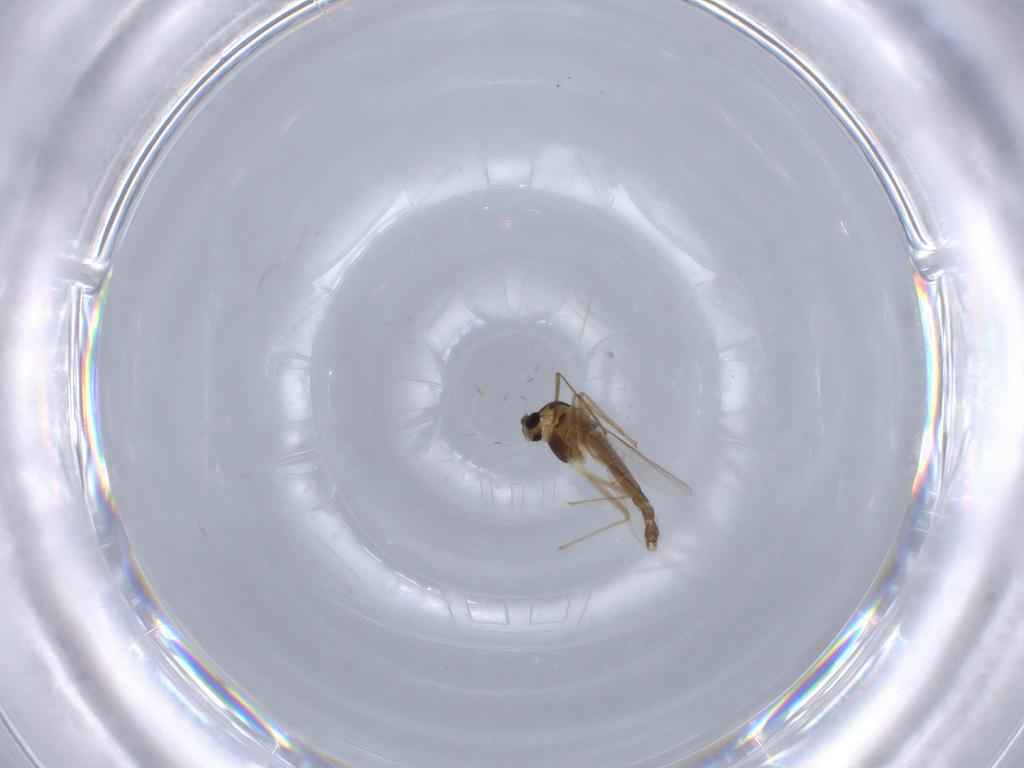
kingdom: Animalia
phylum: Arthropoda
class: Insecta
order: Diptera
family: Chironomidae
